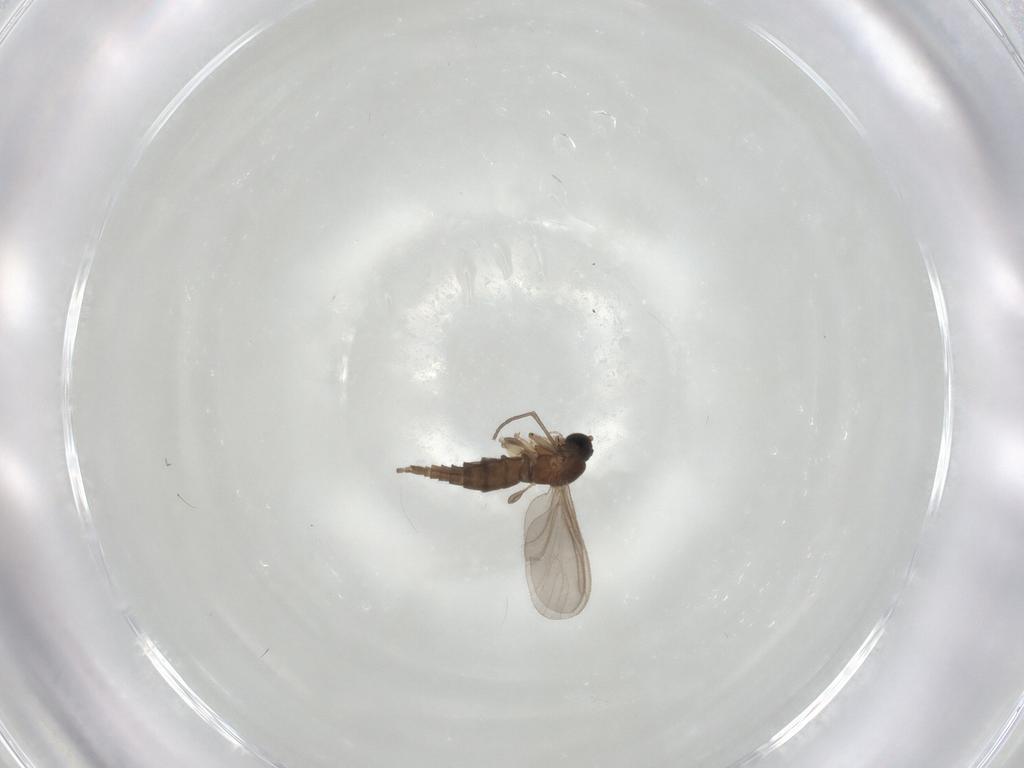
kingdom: Animalia
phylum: Arthropoda
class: Insecta
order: Diptera
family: Sciaridae
